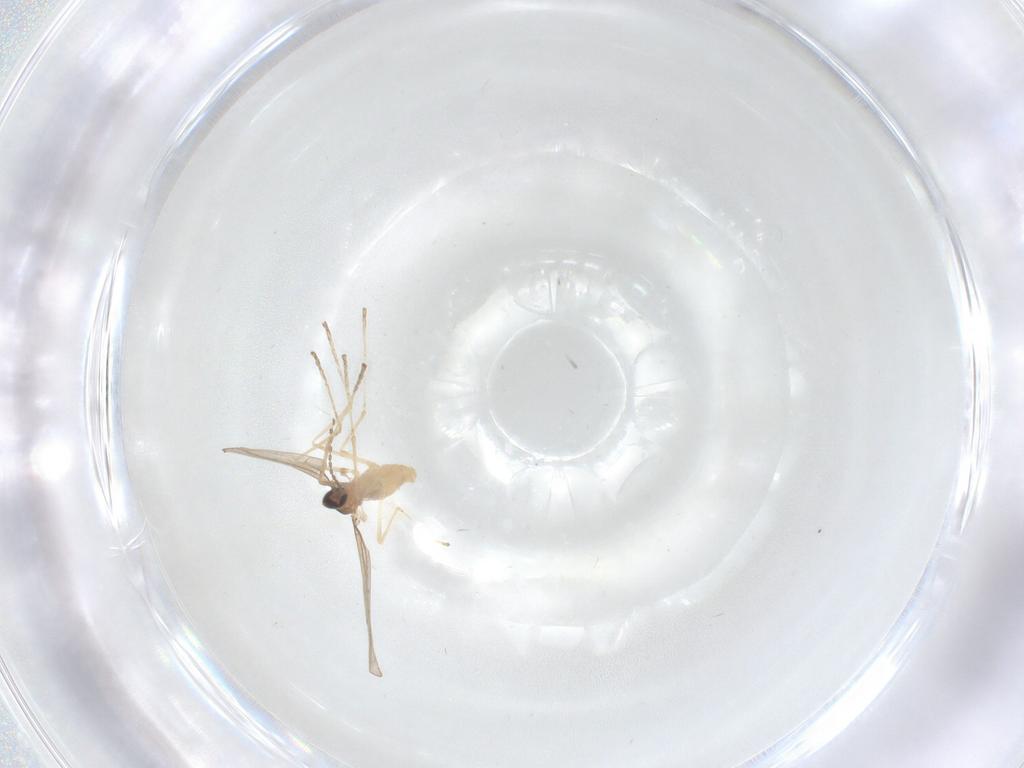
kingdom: Animalia
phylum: Arthropoda
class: Insecta
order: Diptera
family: Cecidomyiidae
